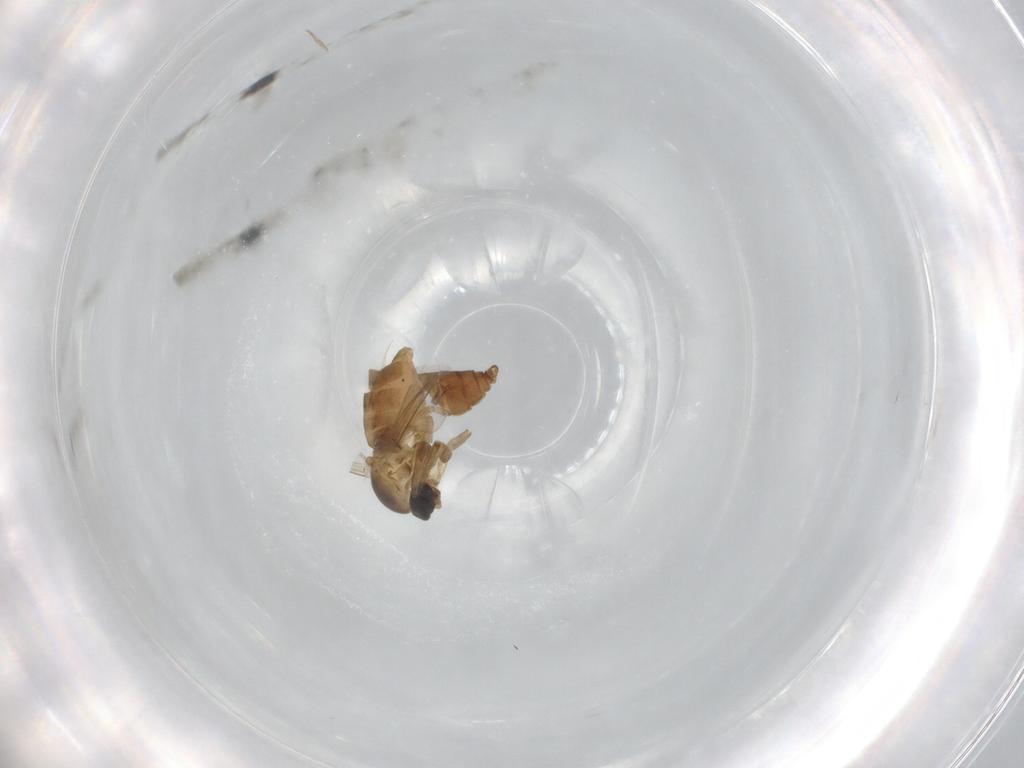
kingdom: Animalia
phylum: Arthropoda
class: Insecta
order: Diptera
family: Cecidomyiidae
